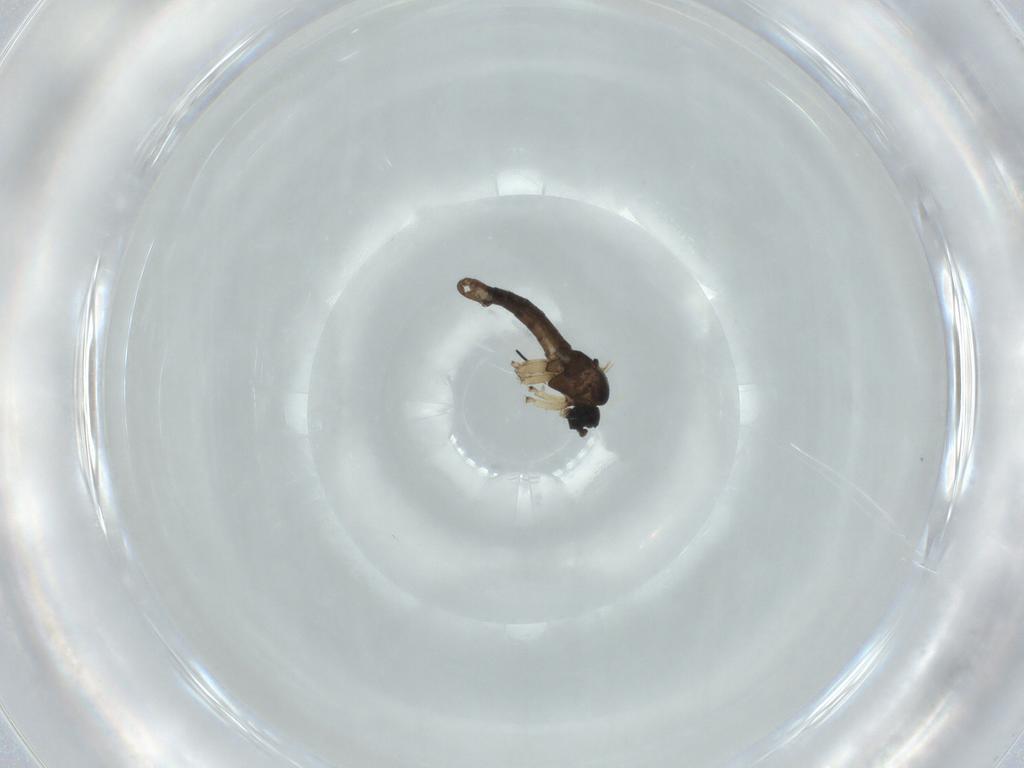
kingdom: Animalia
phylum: Arthropoda
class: Insecta
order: Diptera
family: Sciaridae
